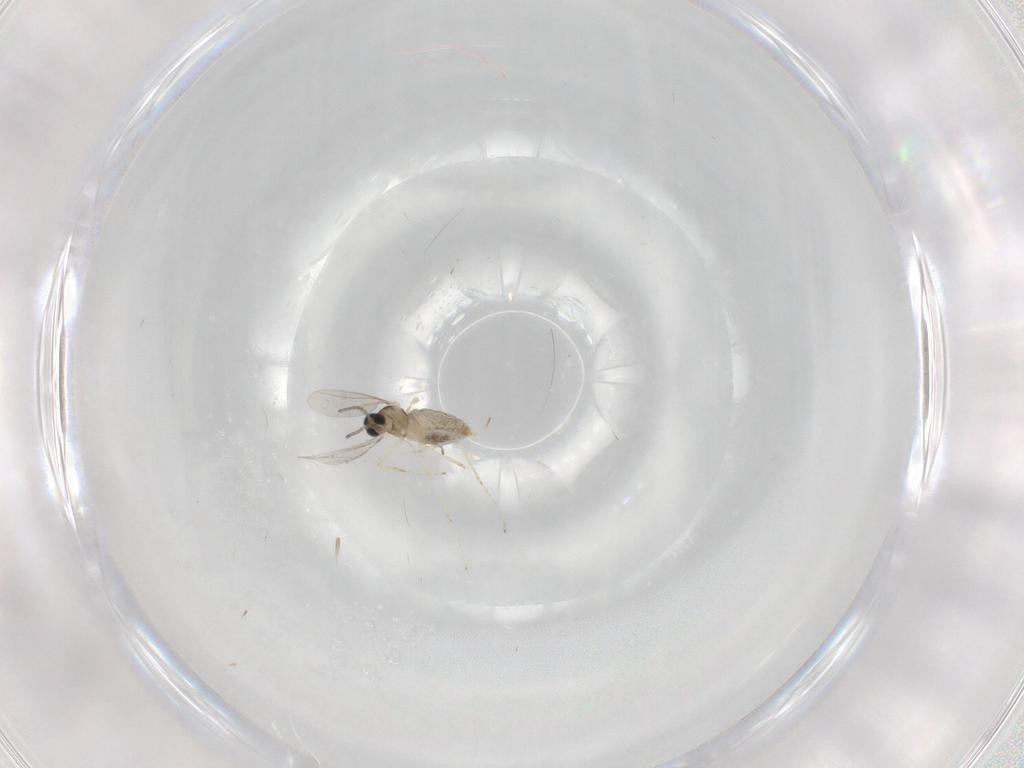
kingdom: Animalia
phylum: Arthropoda
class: Insecta
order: Diptera
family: Cecidomyiidae
